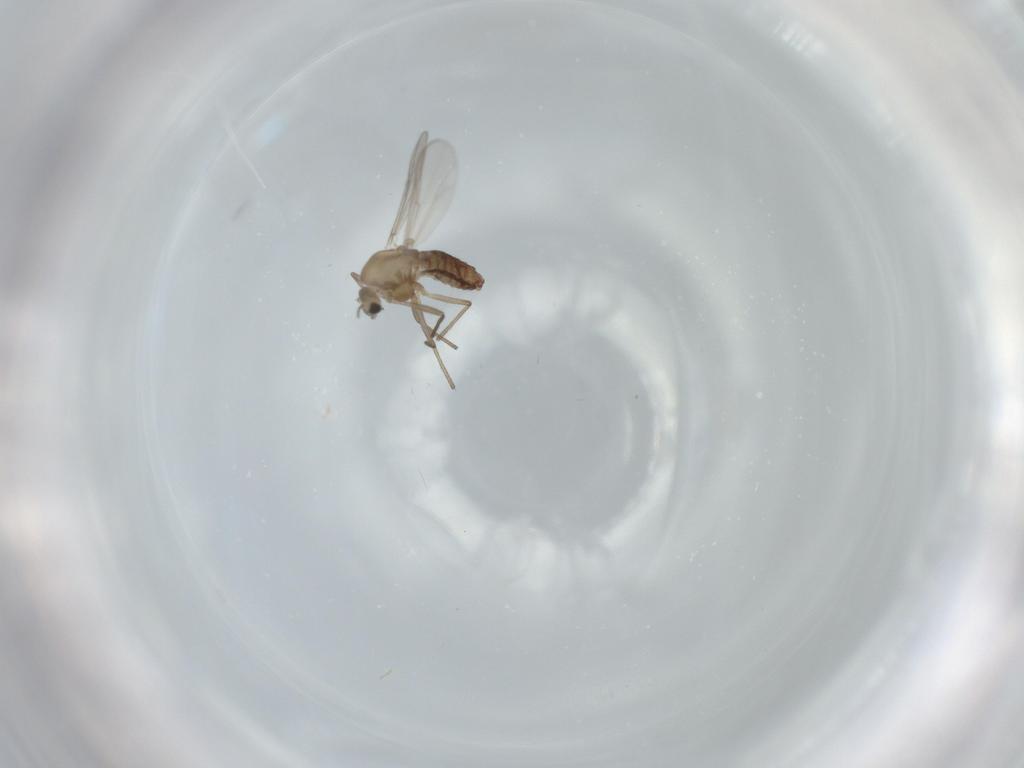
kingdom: Animalia
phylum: Arthropoda
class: Insecta
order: Diptera
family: Chironomidae
